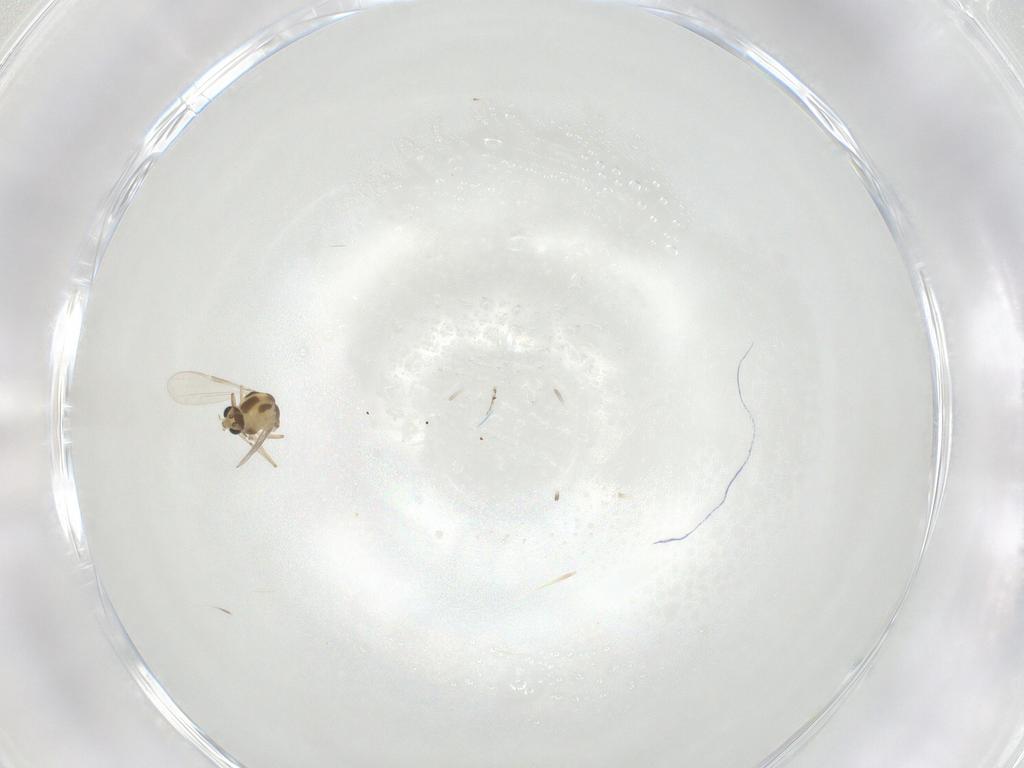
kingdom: Animalia
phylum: Arthropoda
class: Insecta
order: Diptera
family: Chironomidae
